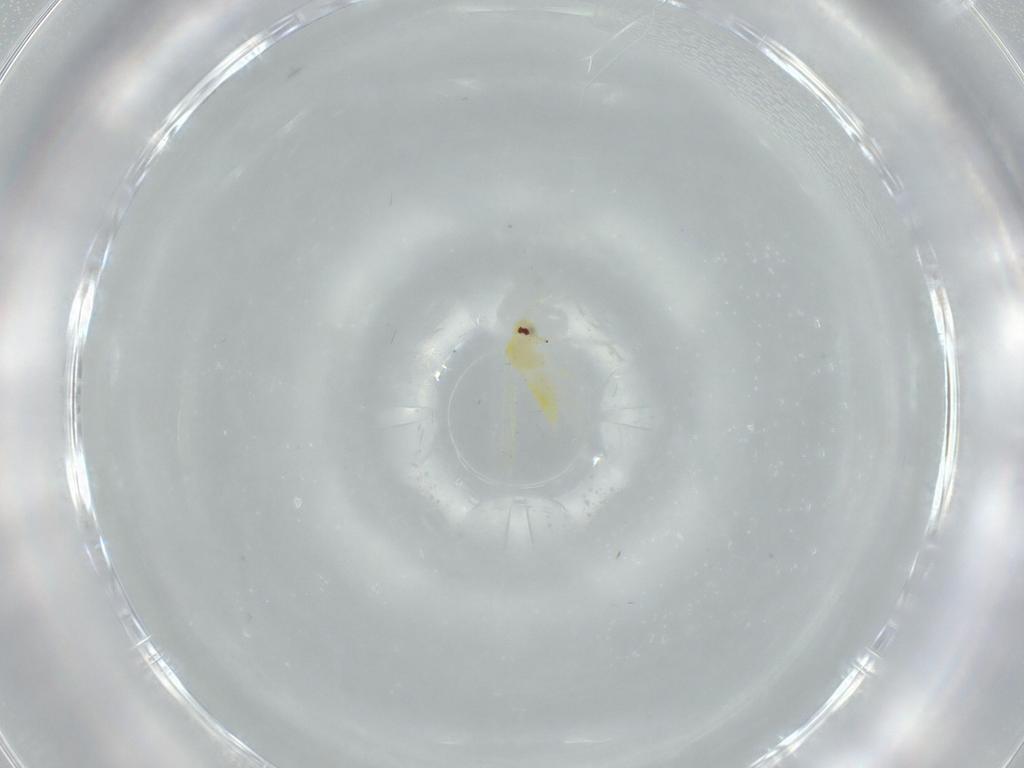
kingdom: Animalia
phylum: Arthropoda
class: Insecta
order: Hemiptera
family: Aleyrodidae
